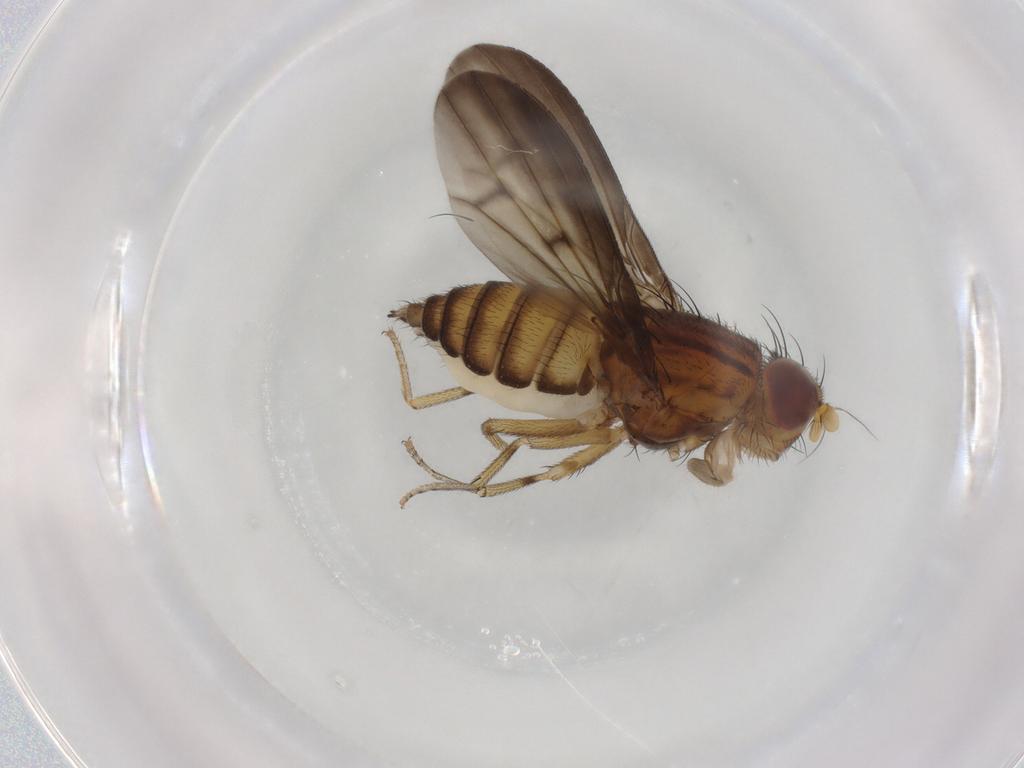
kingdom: Animalia
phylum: Arthropoda
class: Insecta
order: Diptera
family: Lauxaniidae
